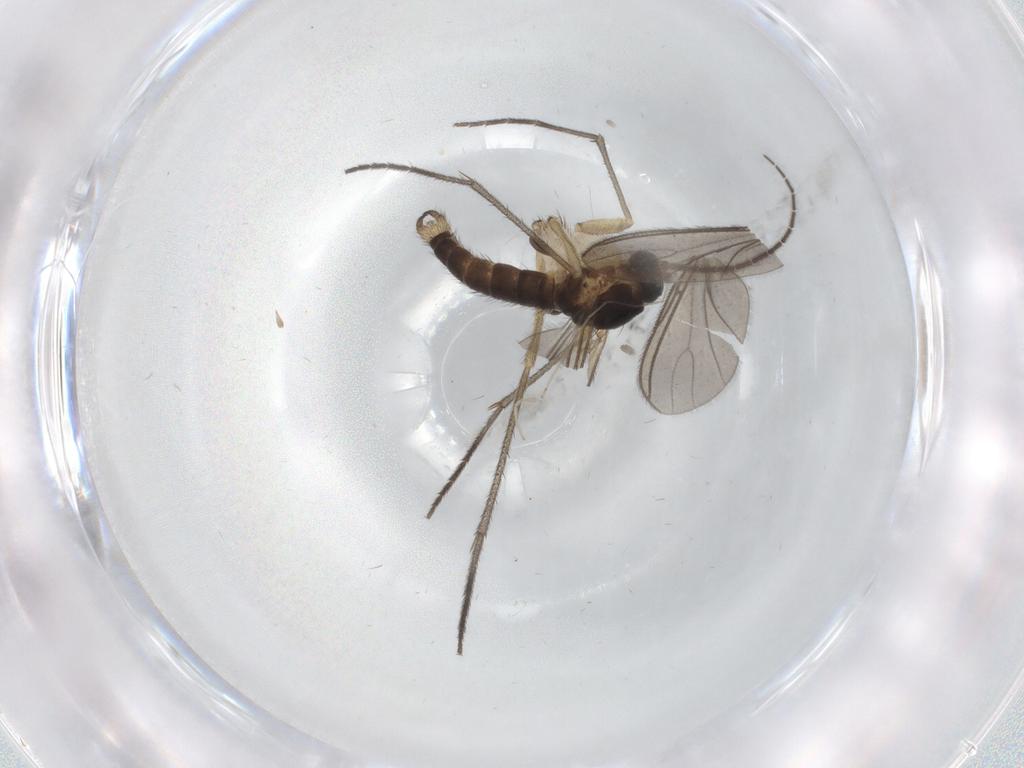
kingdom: Animalia
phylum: Arthropoda
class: Insecta
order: Diptera
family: Sciaridae
